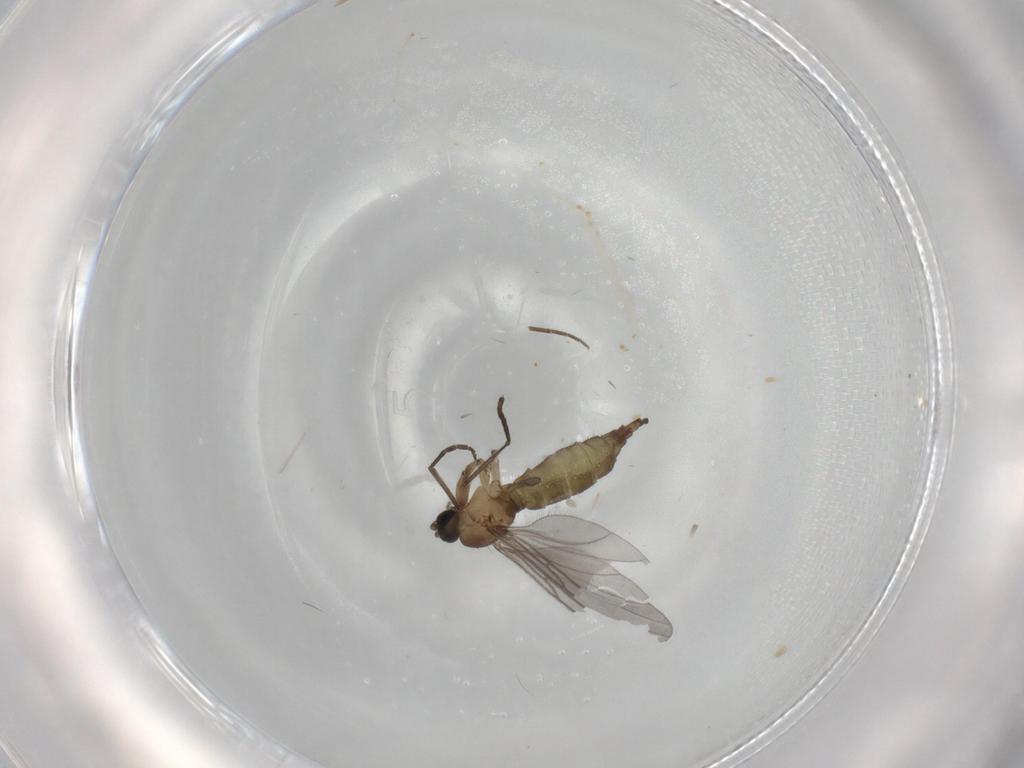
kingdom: Animalia
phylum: Arthropoda
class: Insecta
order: Diptera
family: Sciaridae
